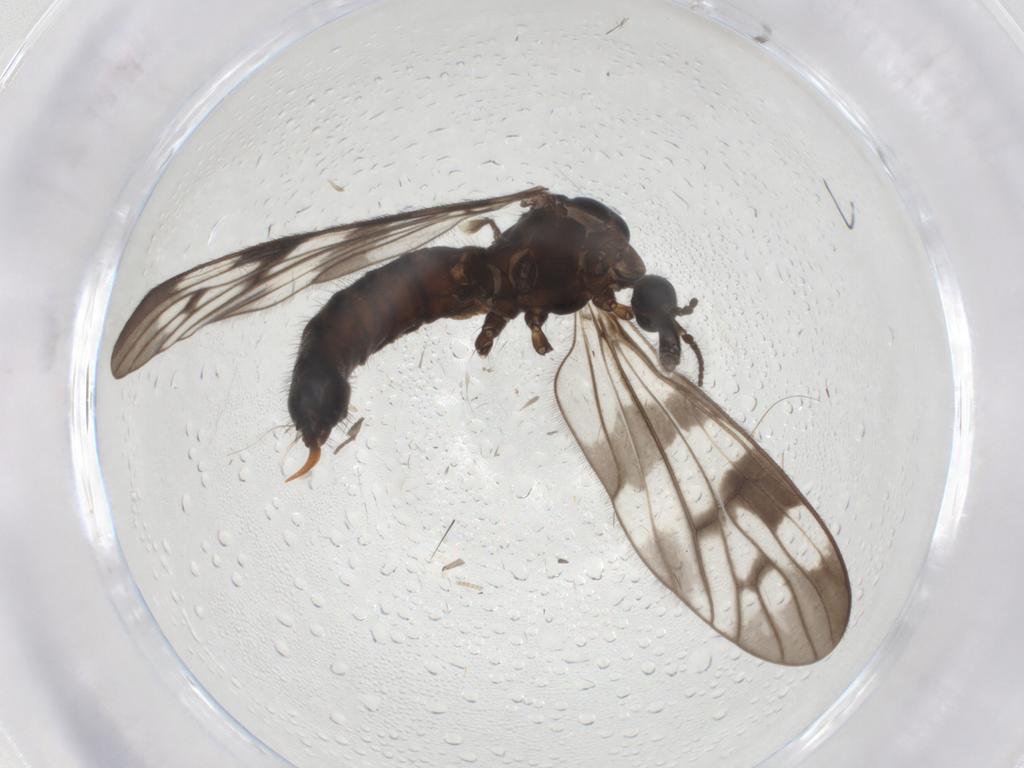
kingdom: Animalia
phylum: Arthropoda
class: Insecta
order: Diptera
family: Limoniidae
